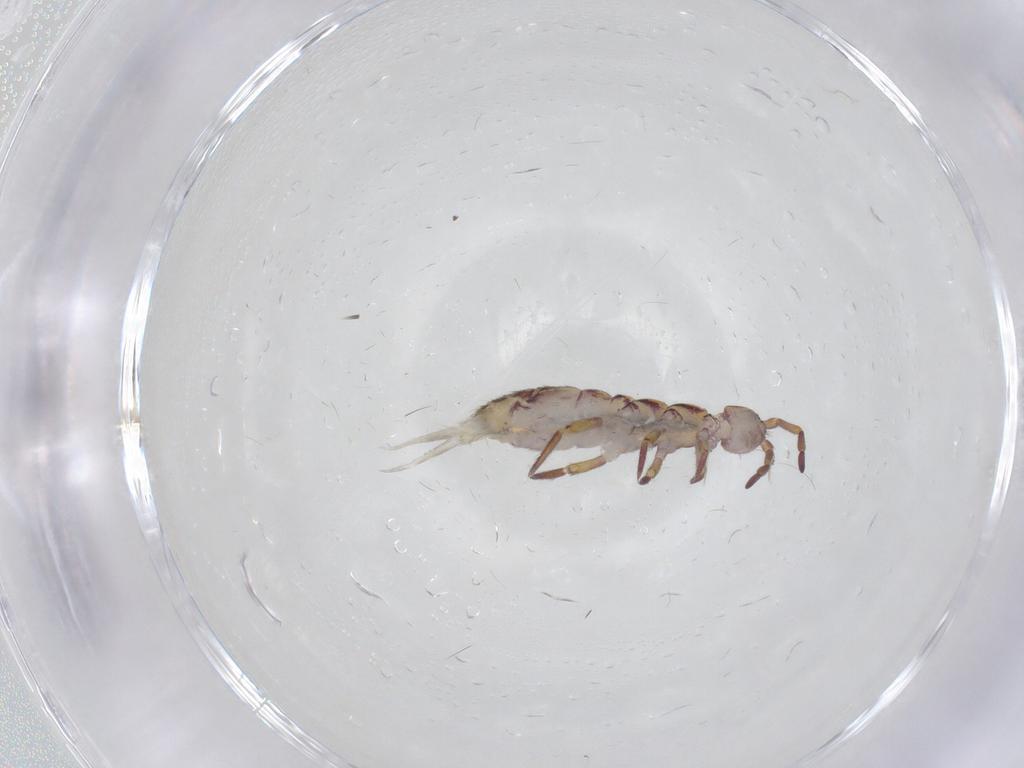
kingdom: Animalia
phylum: Arthropoda
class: Collembola
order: Entomobryomorpha
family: Isotomidae
